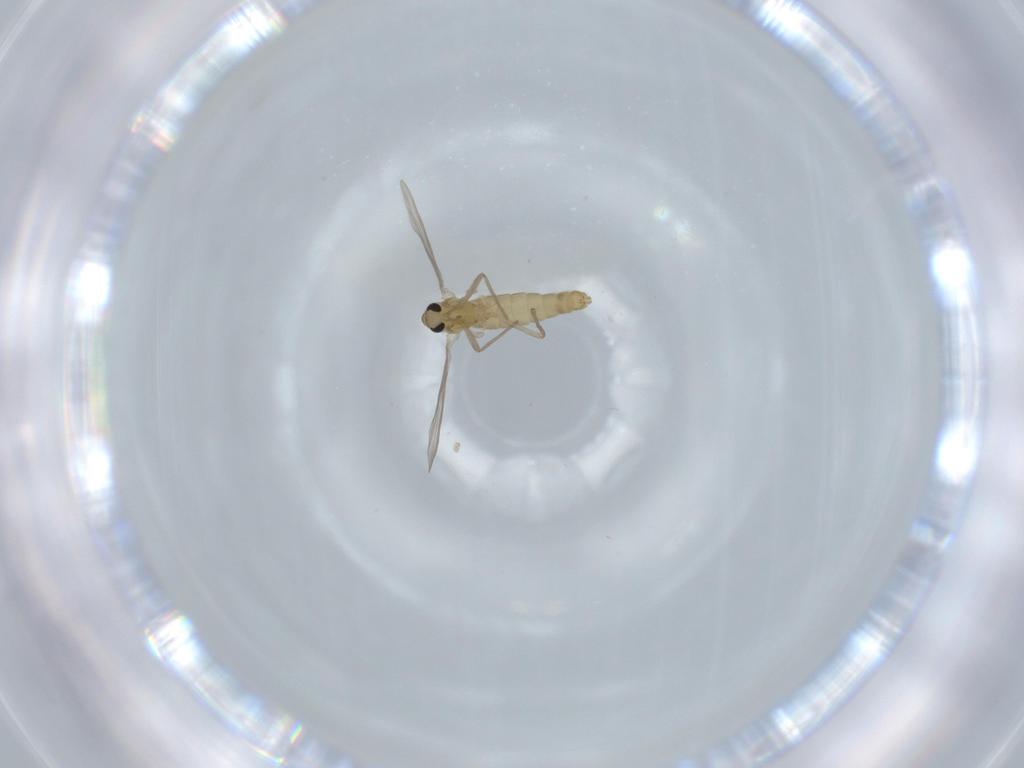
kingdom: Animalia
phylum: Arthropoda
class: Insecta
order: Diptera
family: Chironomidae
